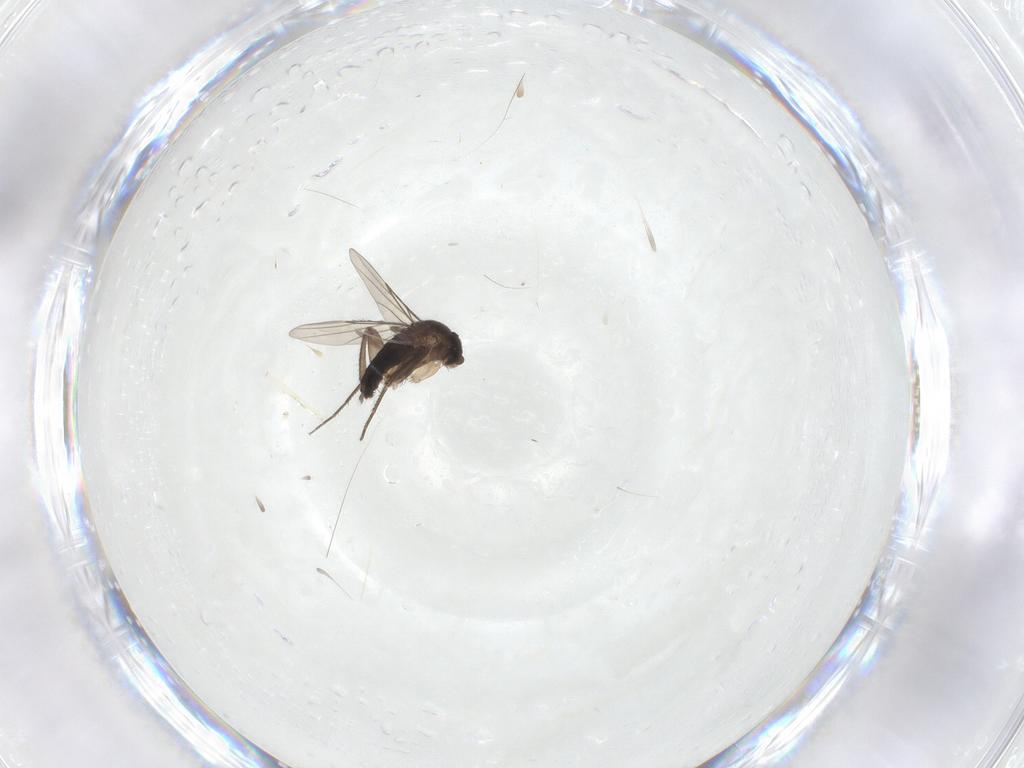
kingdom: Animalia
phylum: Arthropoda
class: Insecta
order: Diptera
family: Phoridae
